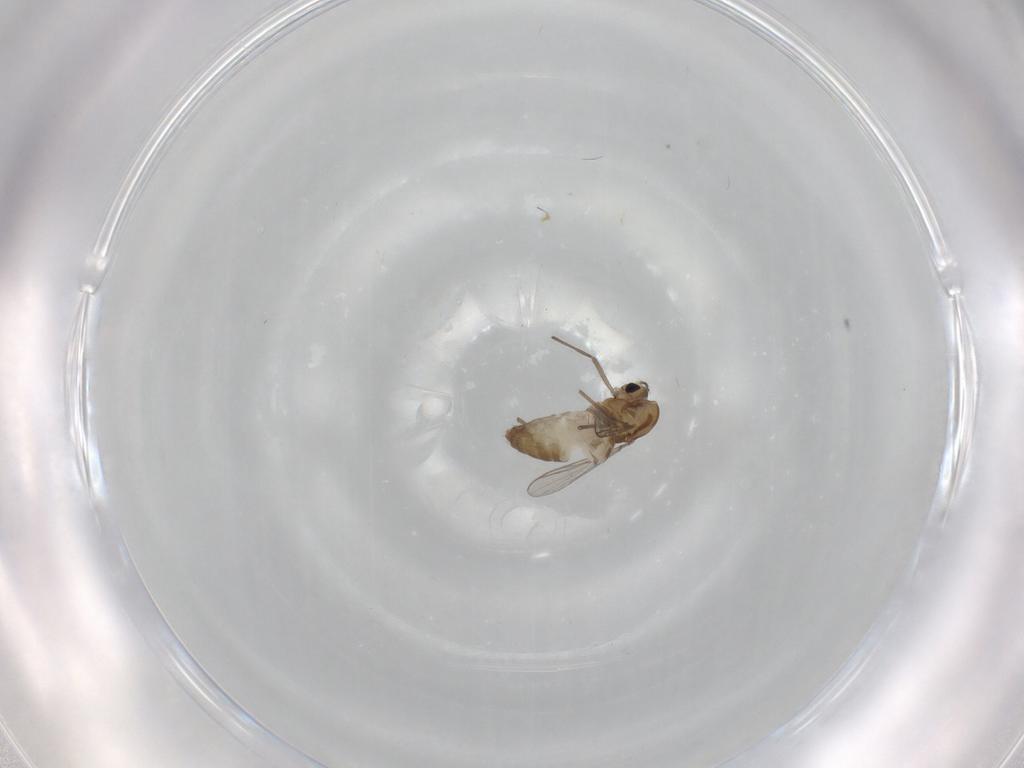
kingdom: Animalia
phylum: Arthropoda
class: Insecta
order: Diptera
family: Chironomidae
